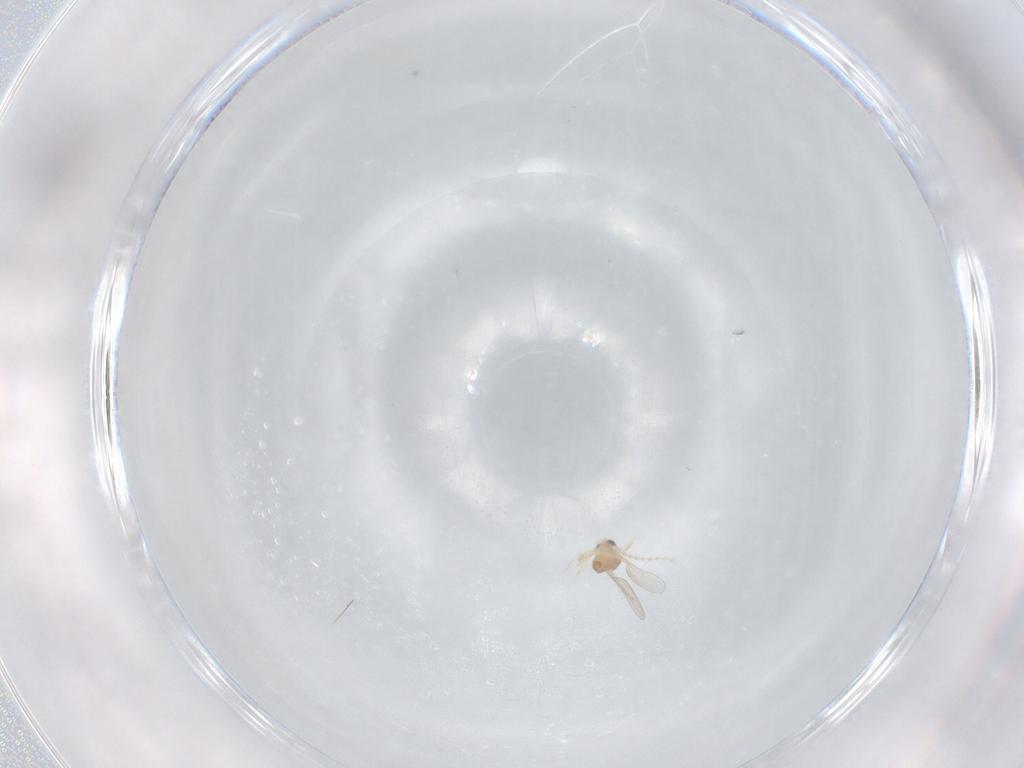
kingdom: Animalia
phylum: Arthropoda
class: Insecta
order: Diptera
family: Cecidomyiidae
